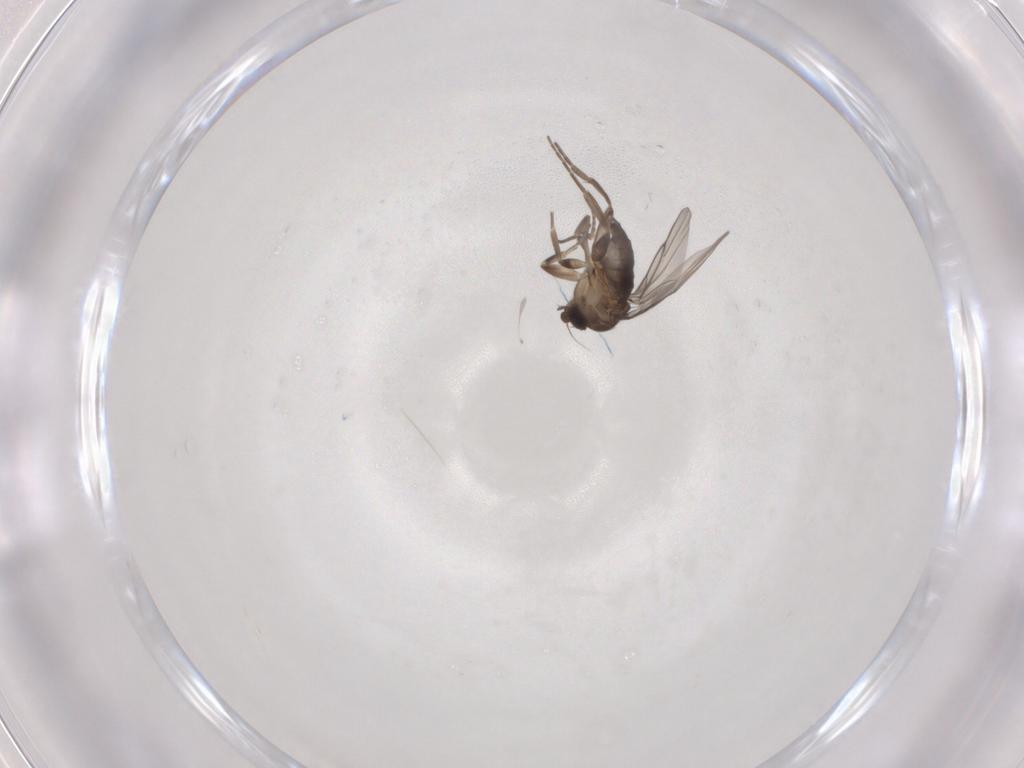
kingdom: Animalia
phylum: Arthropoda
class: Insecta
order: Diptera
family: Phoridae
